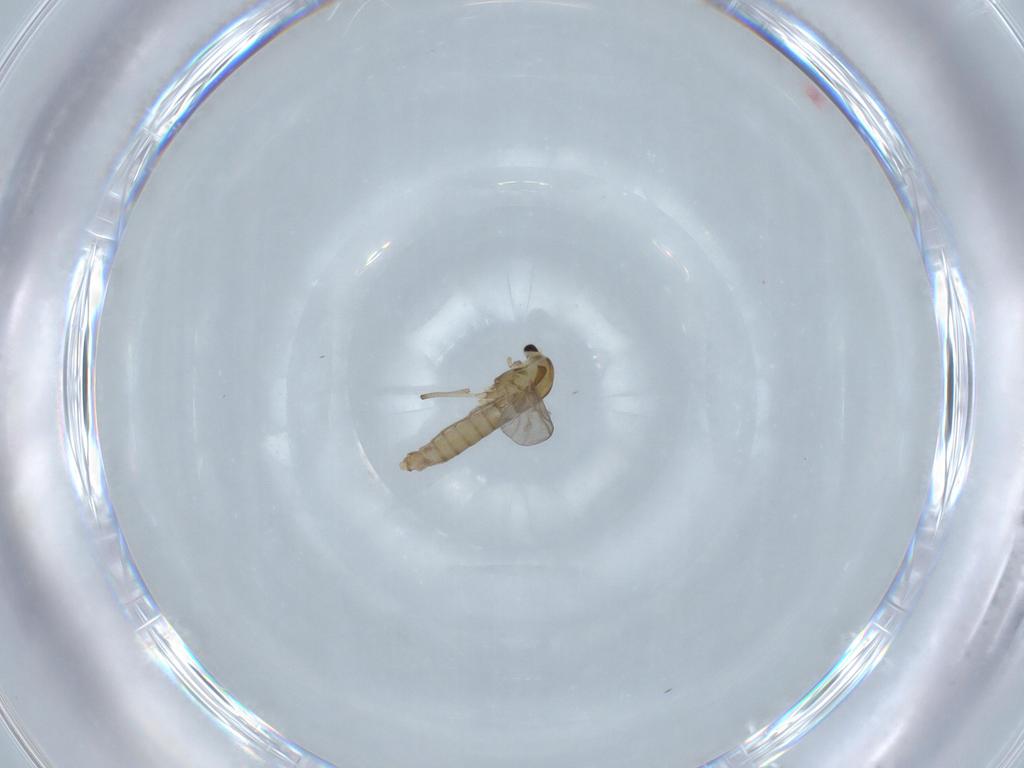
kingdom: Animalia
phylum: Arthropoda
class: Insecta
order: Diptera
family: Chironomidae
